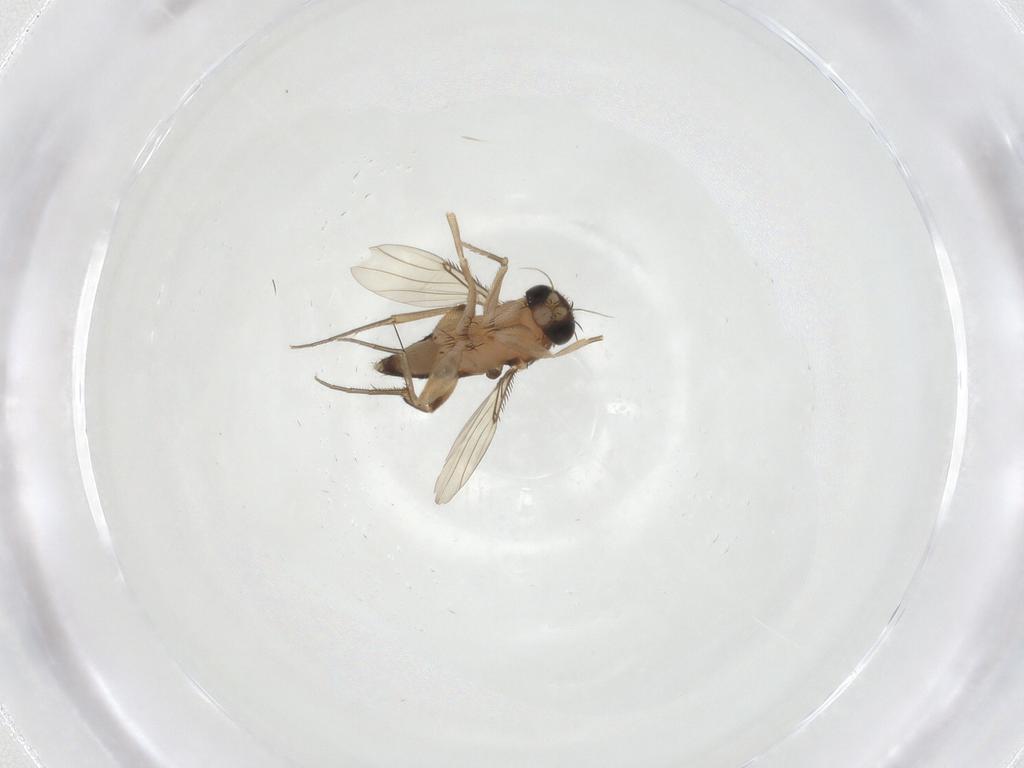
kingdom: Animalia
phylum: Arthropoda
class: Insecta
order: Diptera
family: Phoridae
